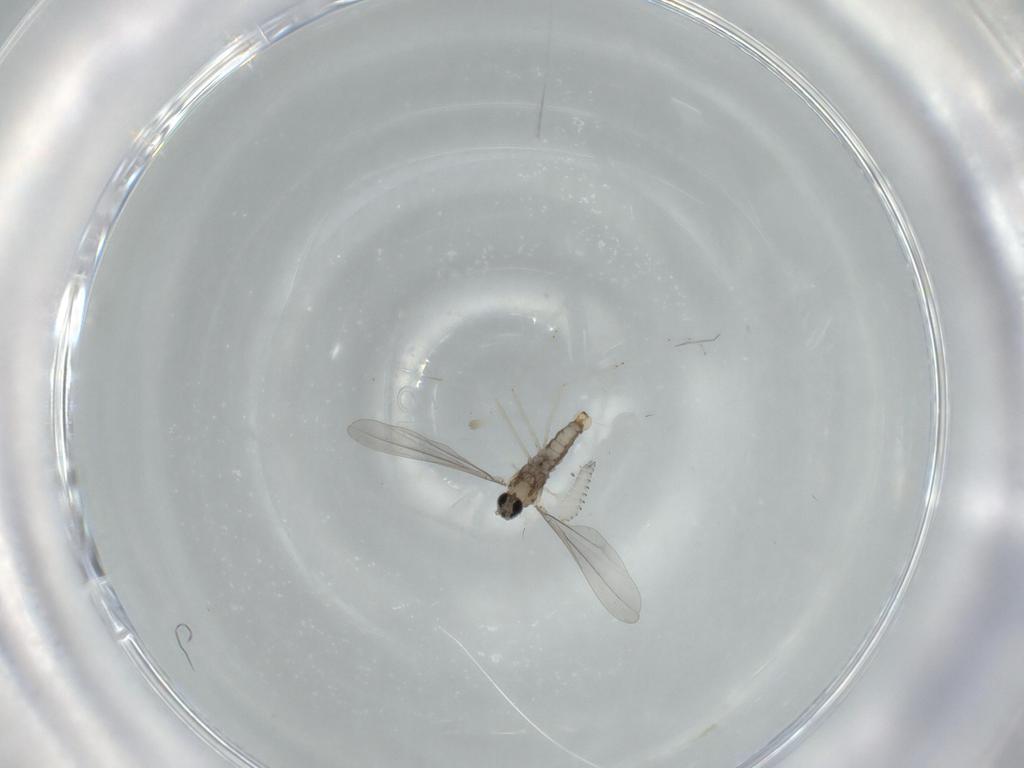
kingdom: Animalia
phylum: Arthropoda
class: Insecta
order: Diptera
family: Cecidomyiidae
